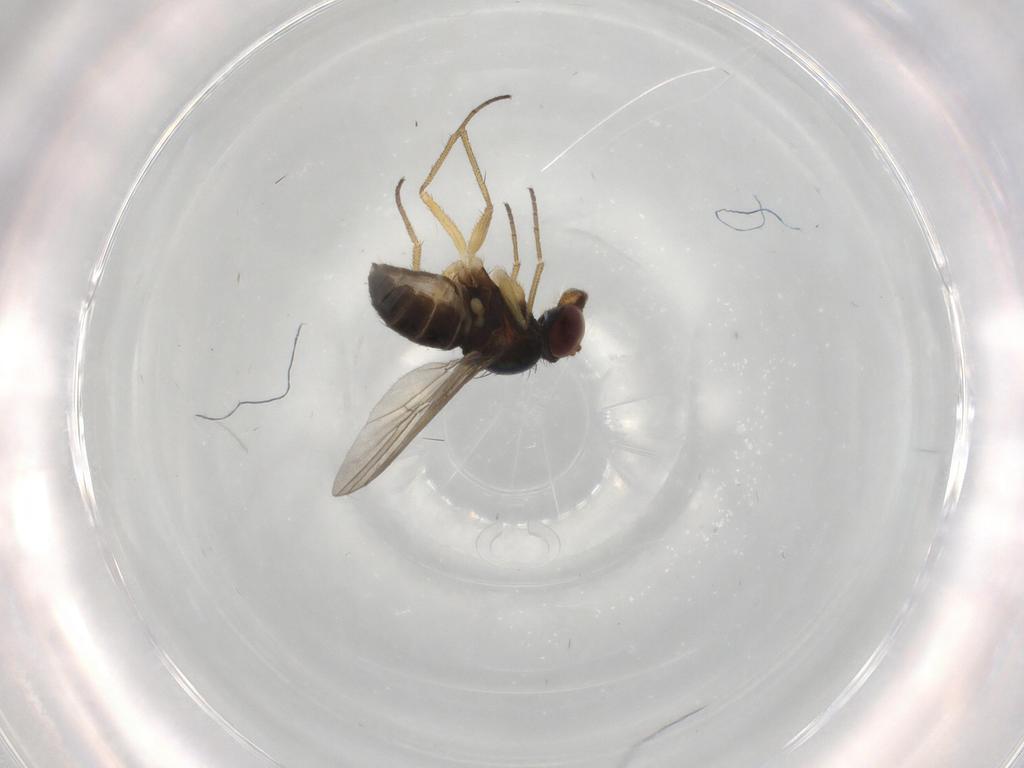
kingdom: Animalia
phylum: Arthropoda
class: Insecta
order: Diptera
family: Dolichopodidae
